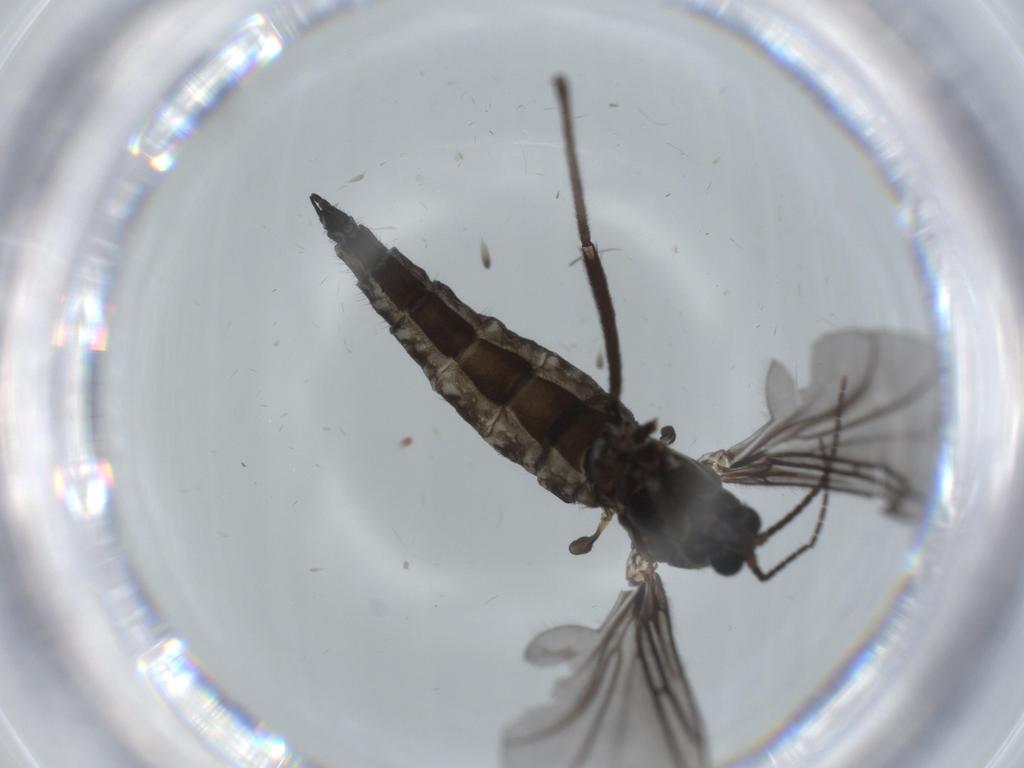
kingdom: Animalia
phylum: Arthropoda
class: Insecta
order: Diptera
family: Sciaridae
